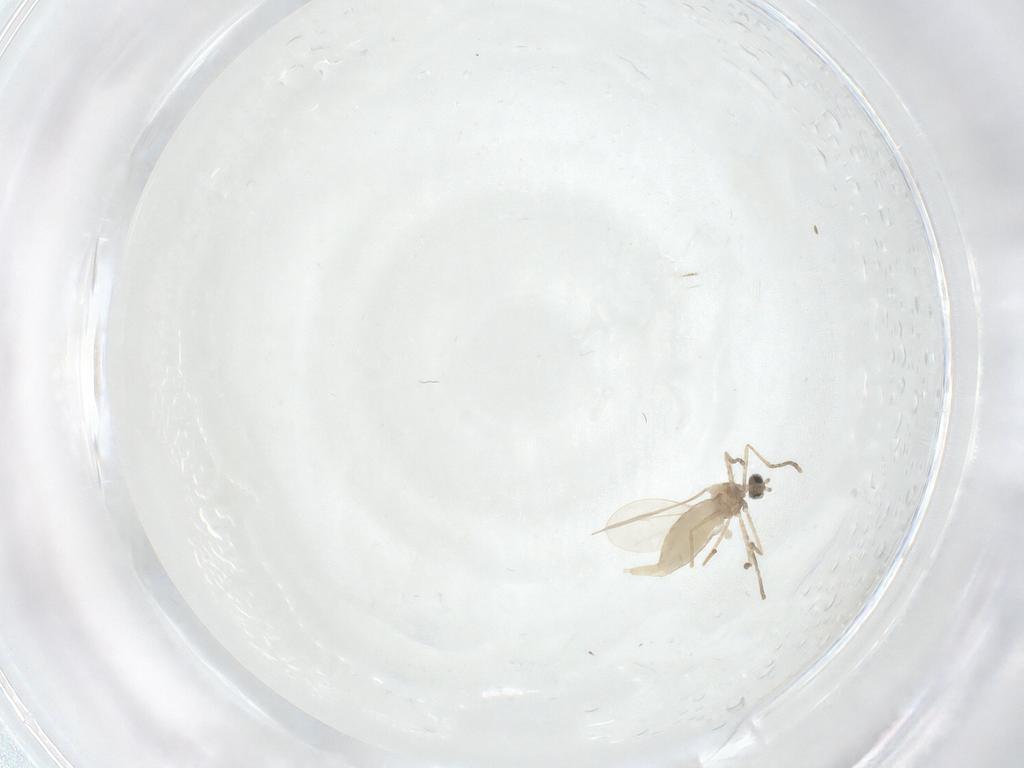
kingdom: Animalia
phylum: Arthropoda
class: Insecta
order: Diptera
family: Cecidomyiidae
